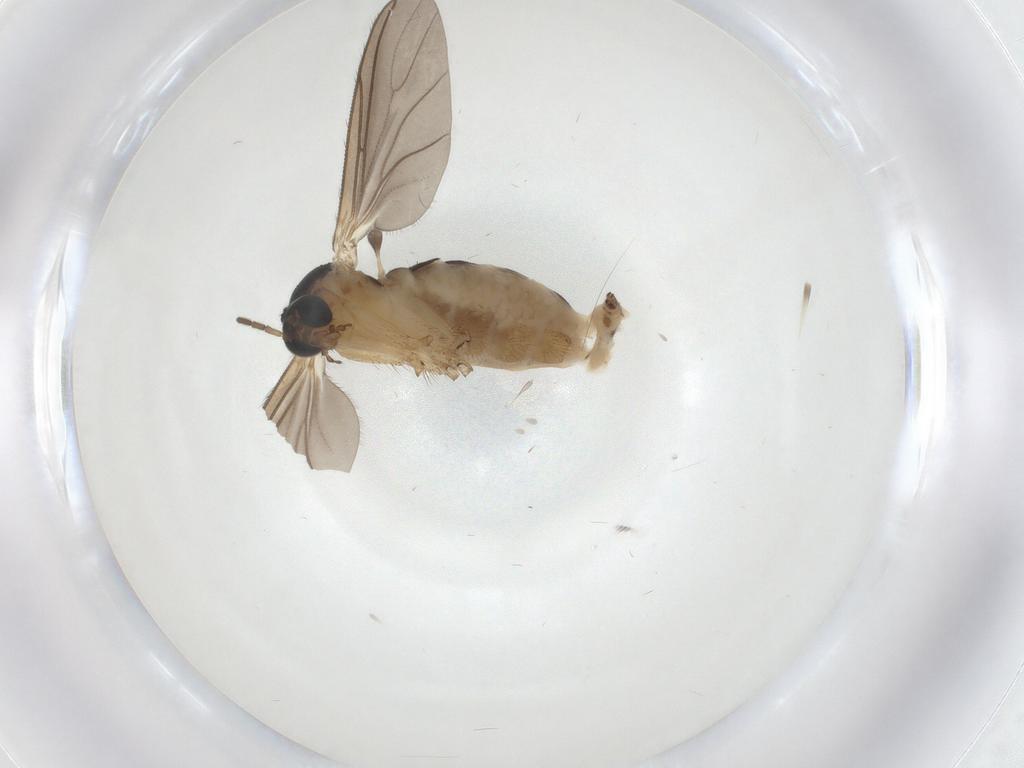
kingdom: Animalia
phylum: Arthropoda
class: Insecta
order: Diptera
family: Sciaridae
